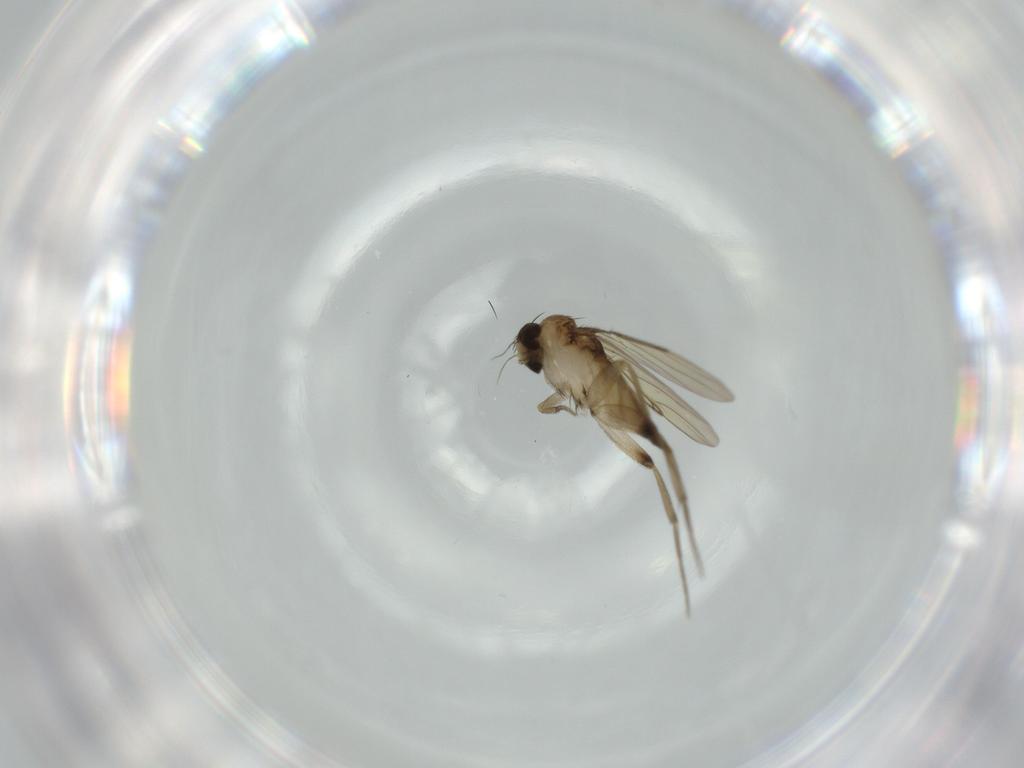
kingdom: Animalia
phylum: Arthropoda
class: Insecta
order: Diptera
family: Phoridae
